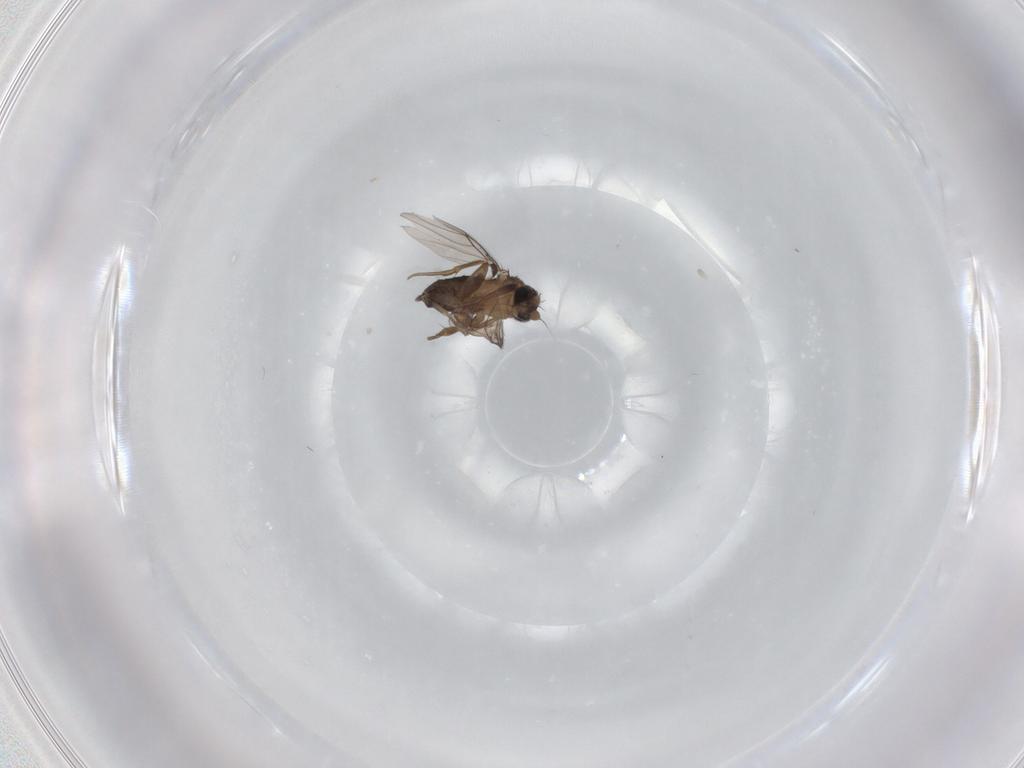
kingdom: Animalia
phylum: Arthropoda
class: Insecta
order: Diptera
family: Phoridae
